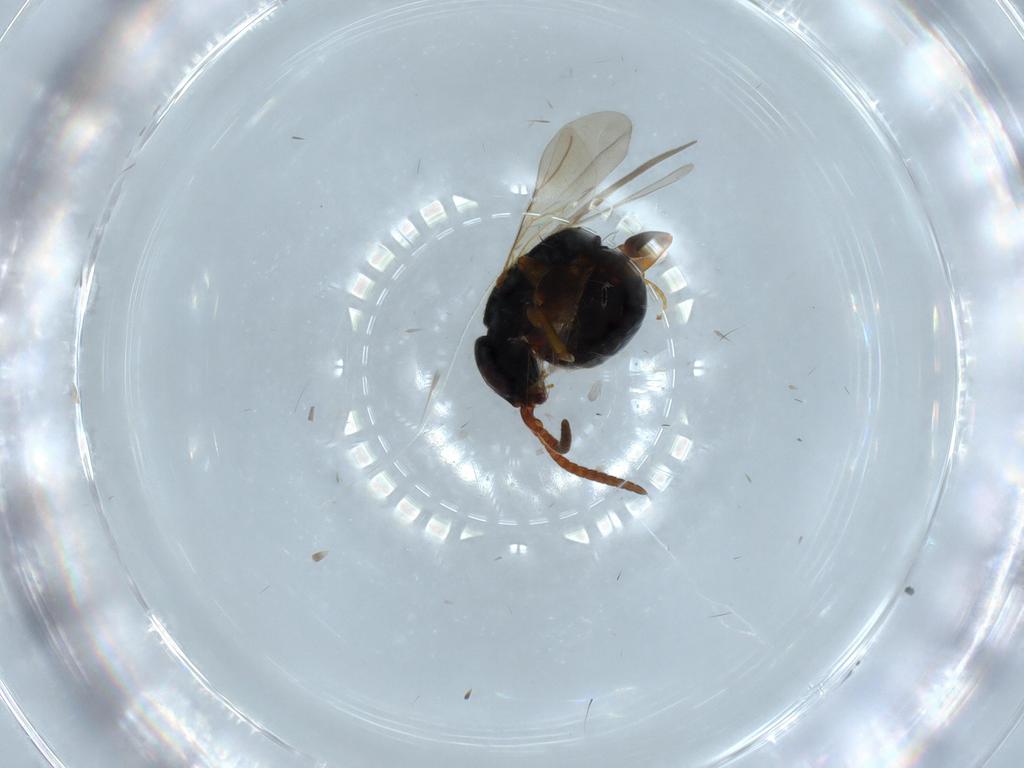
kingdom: Animalia
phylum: Arthropoda
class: Insecta
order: Hymenoptera
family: Bethylidae
